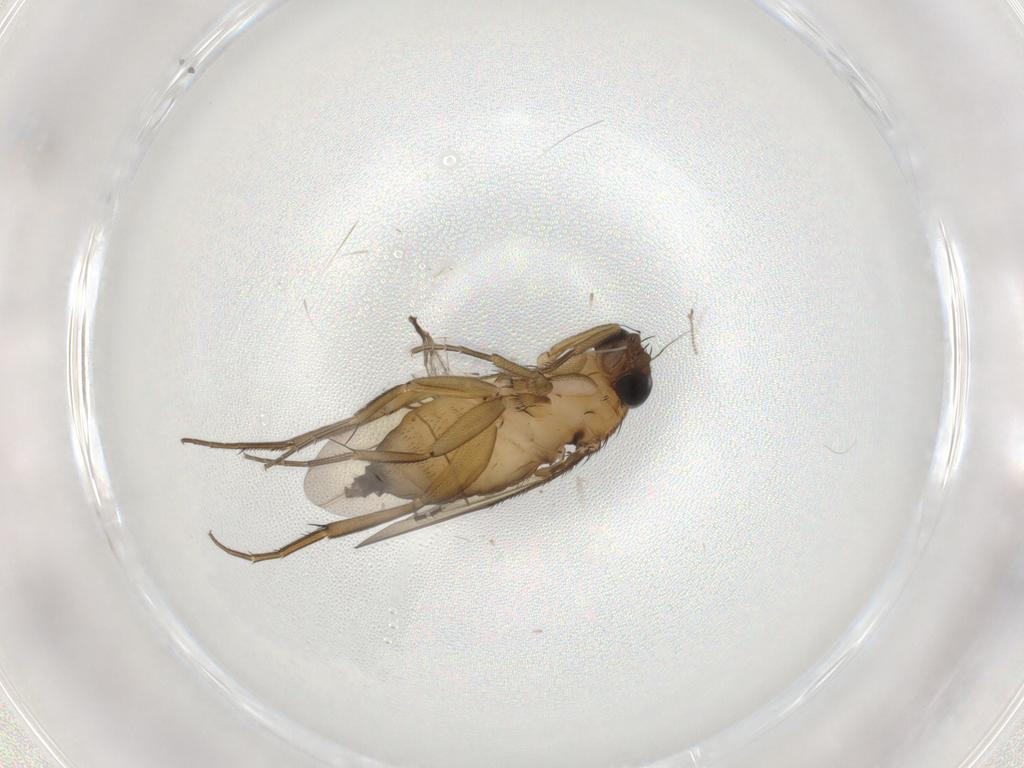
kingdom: Animalia
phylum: Arthropoda
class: Insecta
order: Diptera
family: Phoridae
